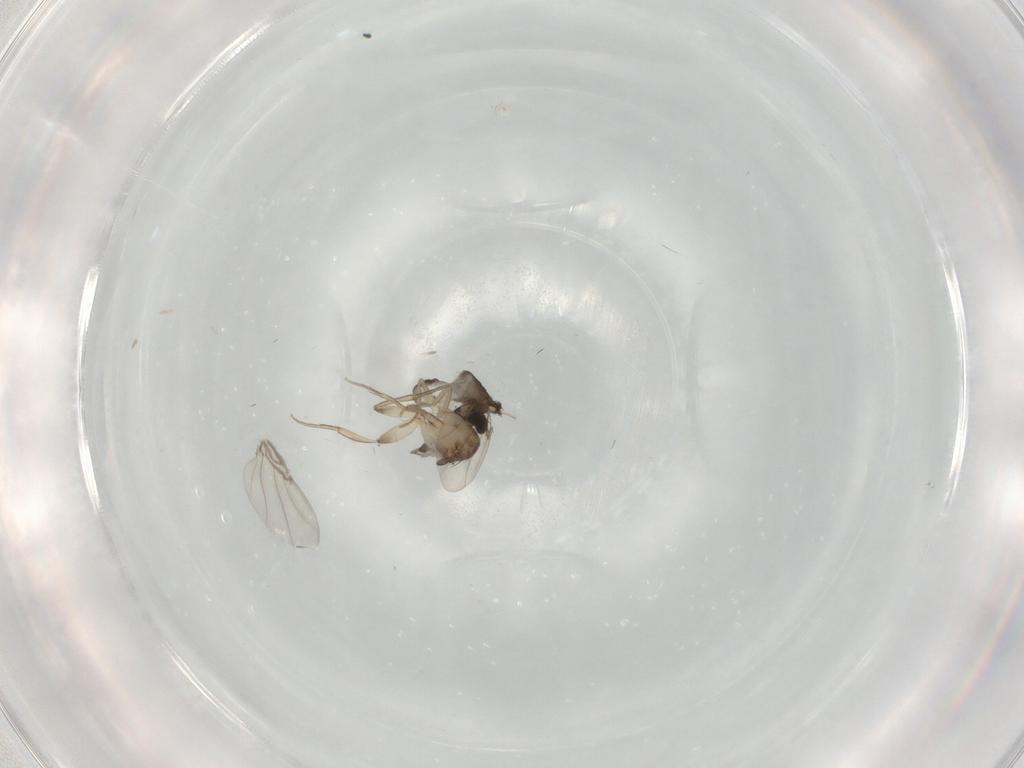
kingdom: Animalia
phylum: Arthropoda
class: Insecta
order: Diptera
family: Phoridae
